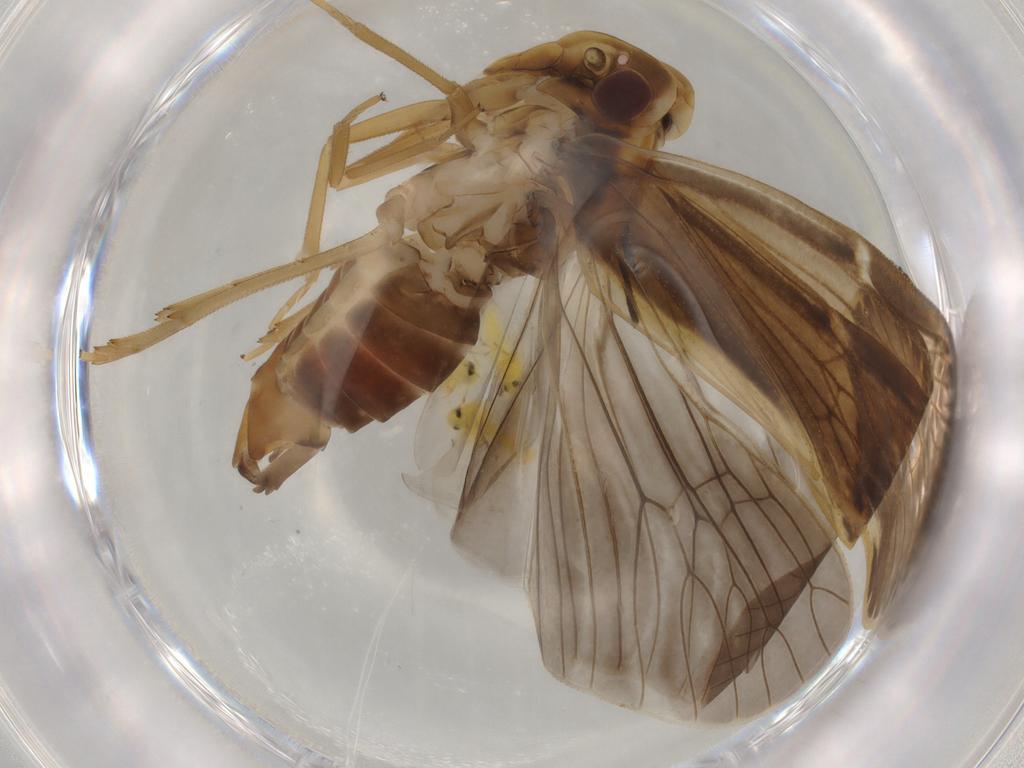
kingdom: Animalia
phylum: Arthropoda
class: Insecta
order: Hemiptera
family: Cixiidae
